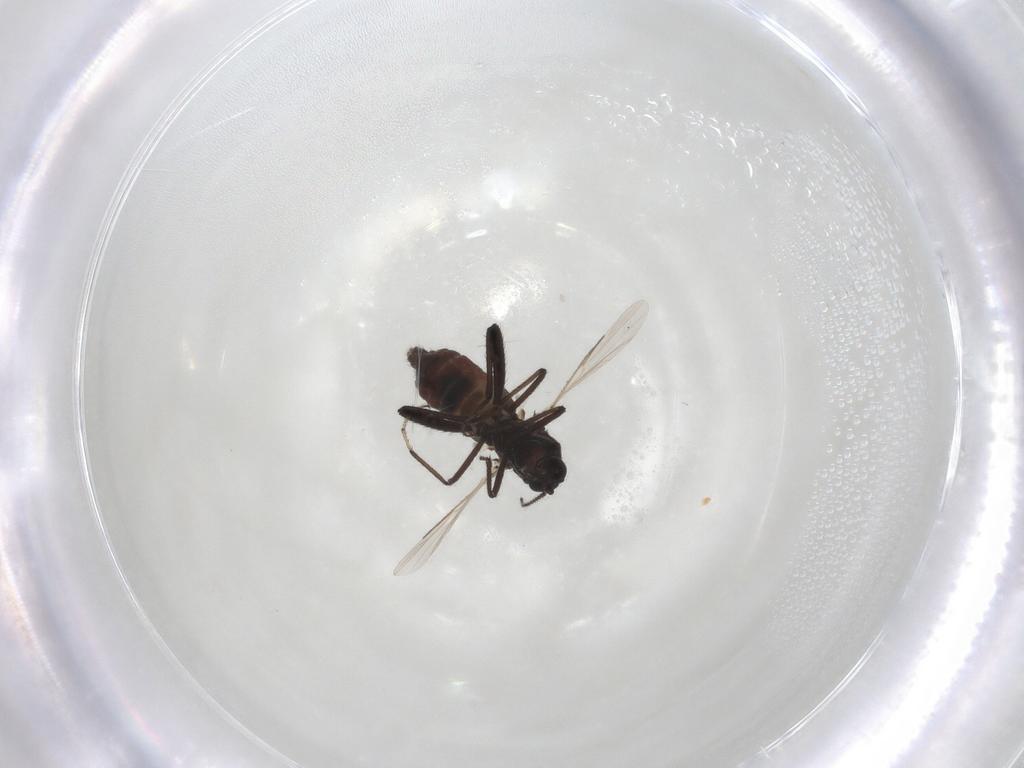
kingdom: Animalia
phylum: Arthropoda
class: Insecta
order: Diptera
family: Ceratopogonidae
